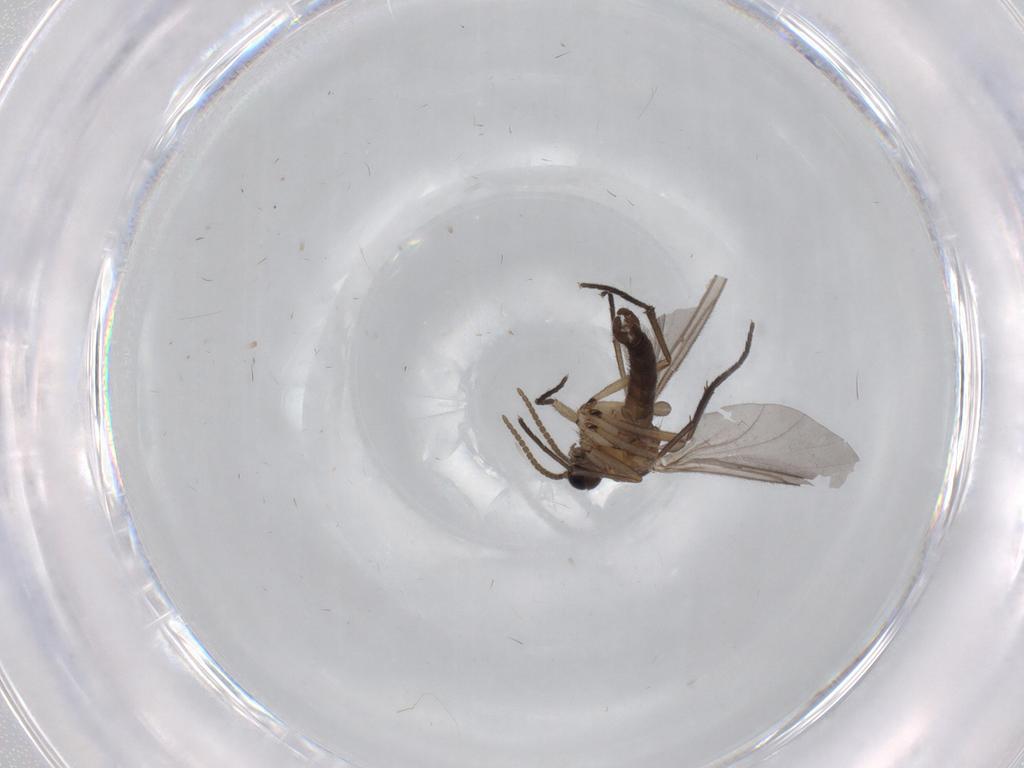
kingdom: Animalia
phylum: Arthropoda
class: Insecta
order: Diptera
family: Sciaridae
